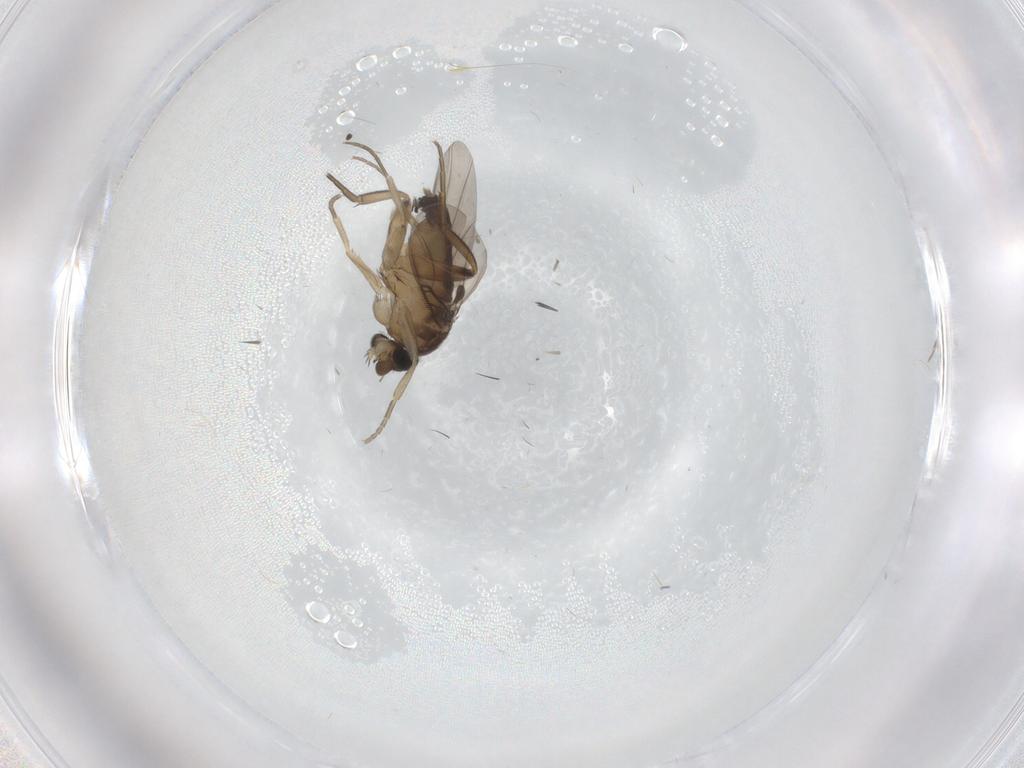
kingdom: Animalia
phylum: Arthropoda
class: Insecta
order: Diptera
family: Phoridae
